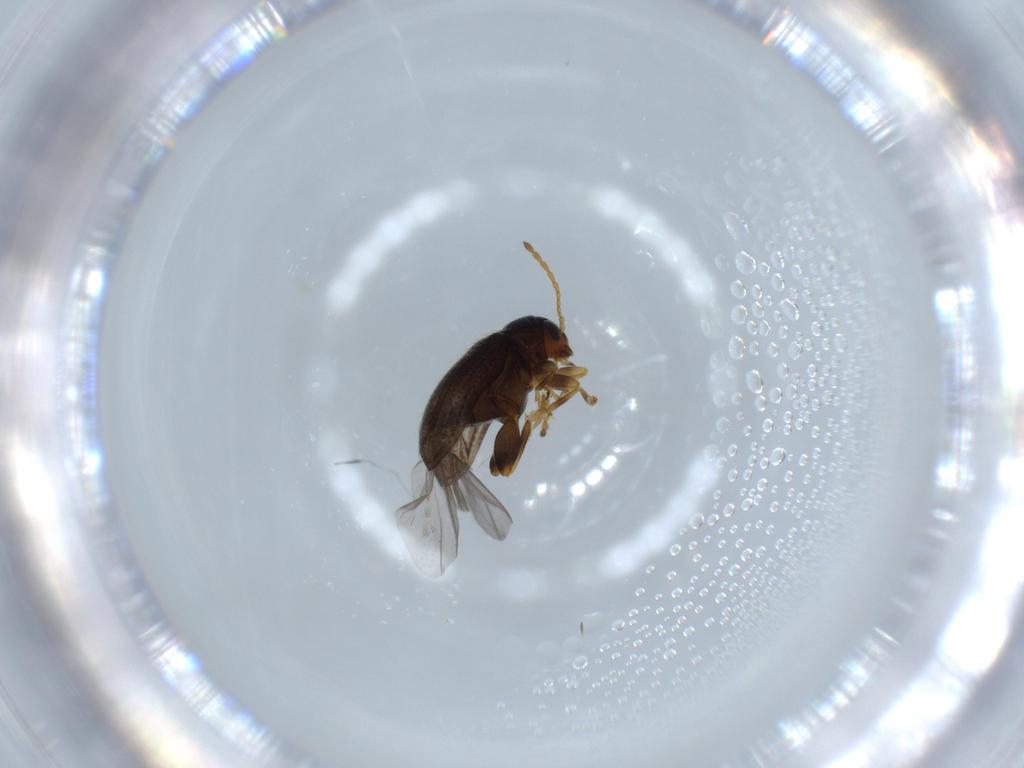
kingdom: Animalia
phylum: Arthropoda
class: Insecta
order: Coleoptera
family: Chrysomelidae
